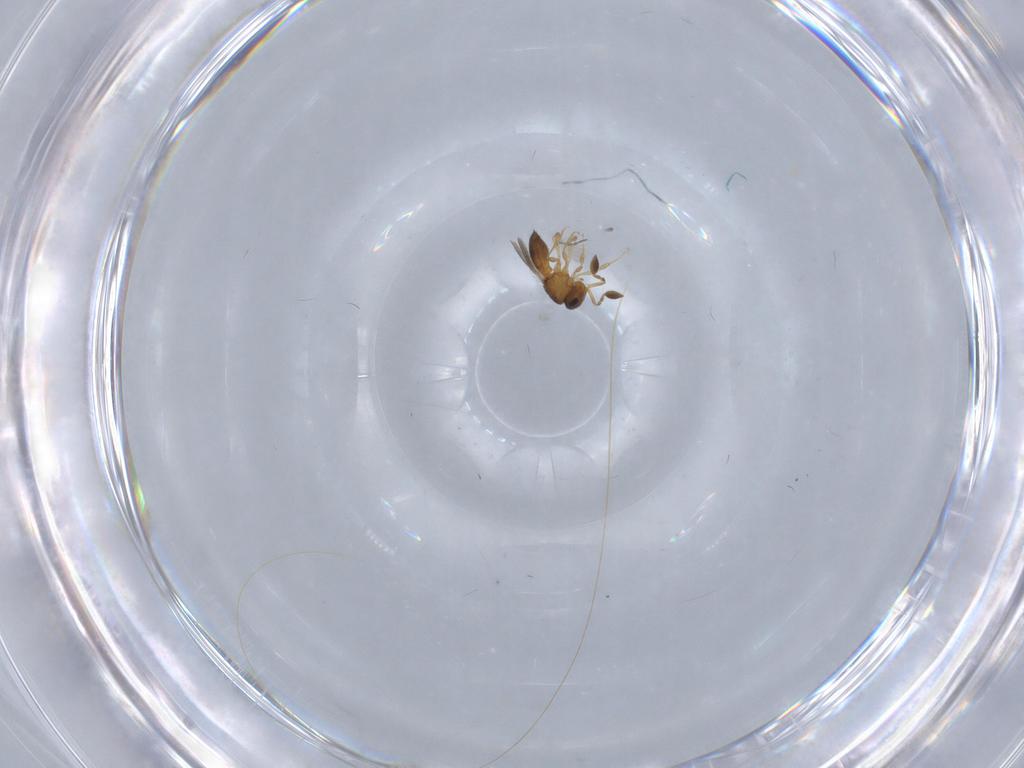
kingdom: Animalia
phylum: Arthropoda
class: Insecta
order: Hymenoptera
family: Scelionidae
